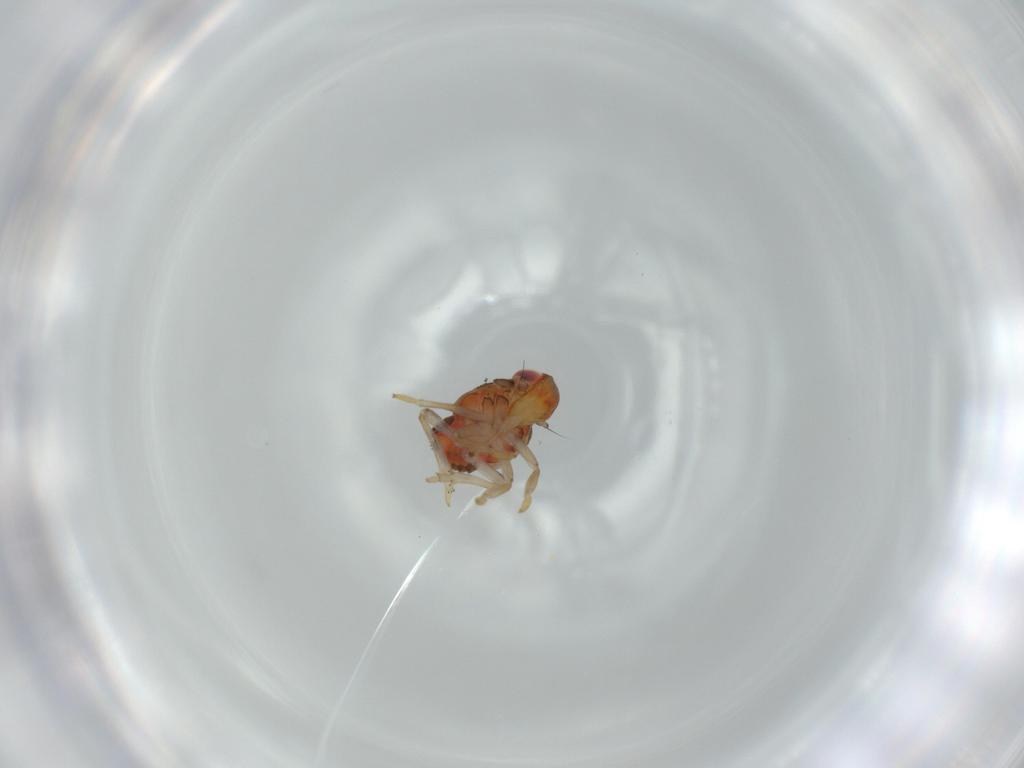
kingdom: Animalia
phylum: Arthropoda
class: Insecta
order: Hemiptera
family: Issidae
